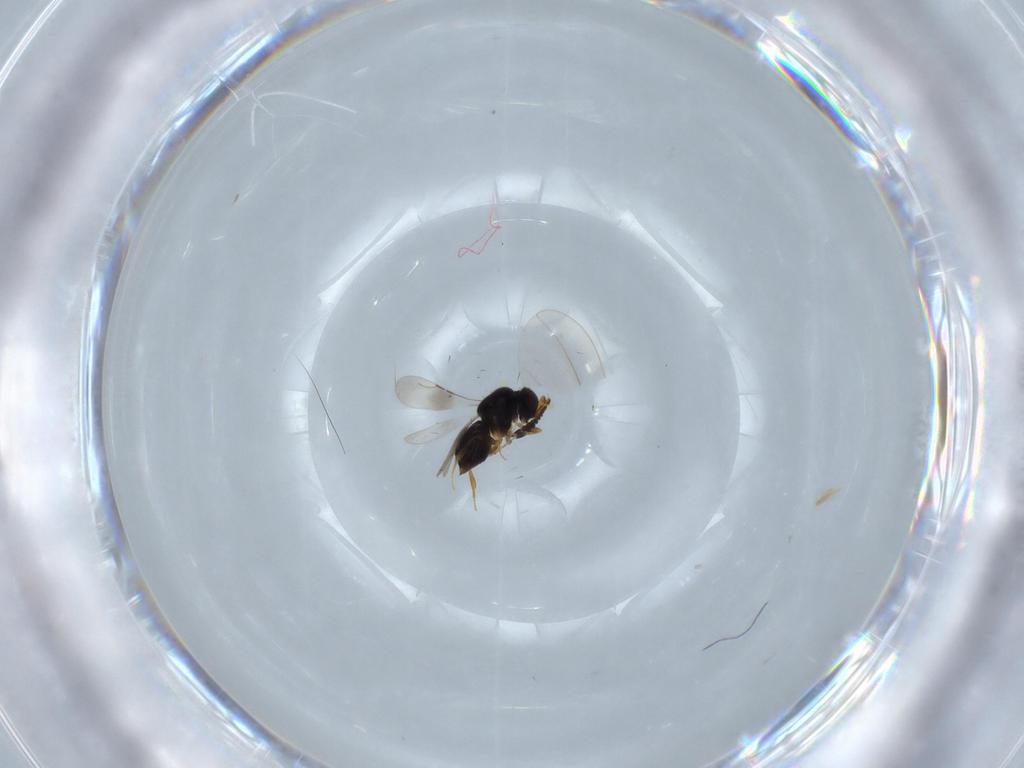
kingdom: Animalia
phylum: Arthropoda
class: Insecta
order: Hymenoptera
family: Ceraphronidae
